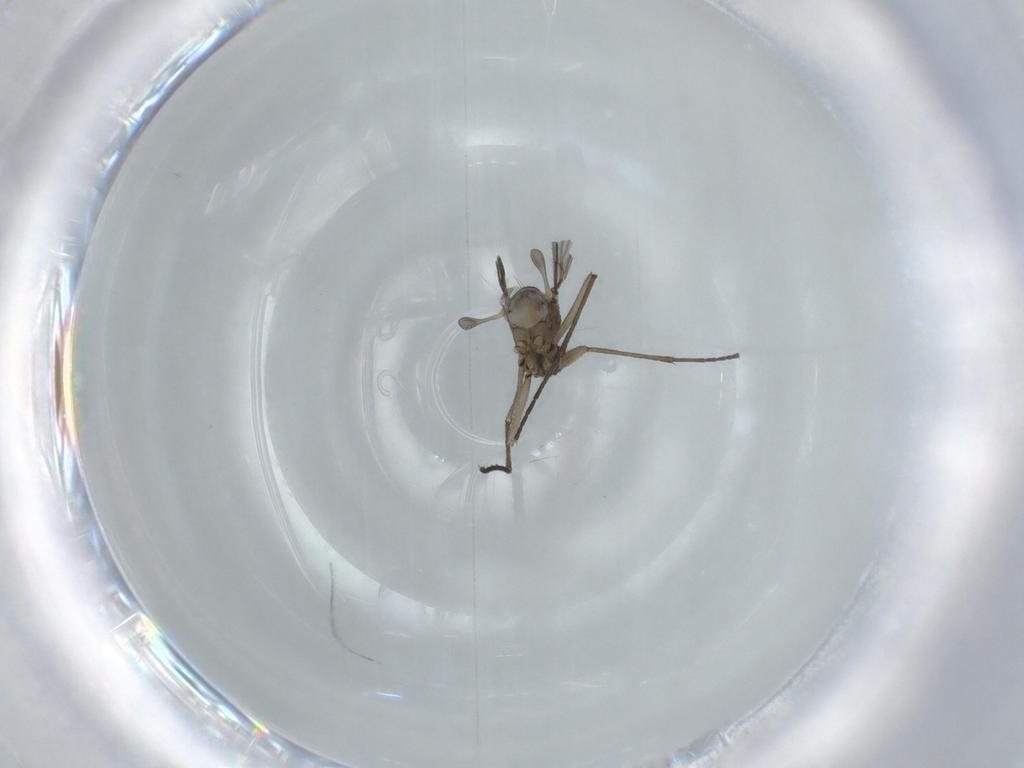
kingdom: Animalia
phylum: Arthropoda
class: Insecta
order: Diptera
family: Sciaridae
